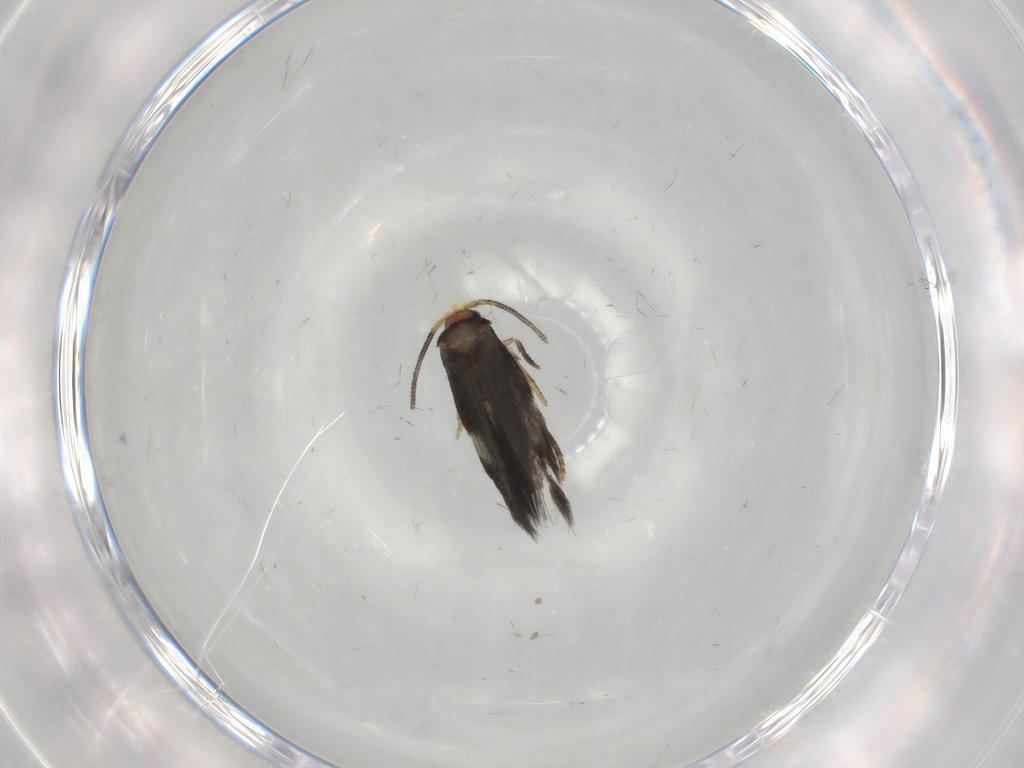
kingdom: Animalia
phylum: Arthropoda
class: Insecta
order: Lepidoptera
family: Nepticulidae
